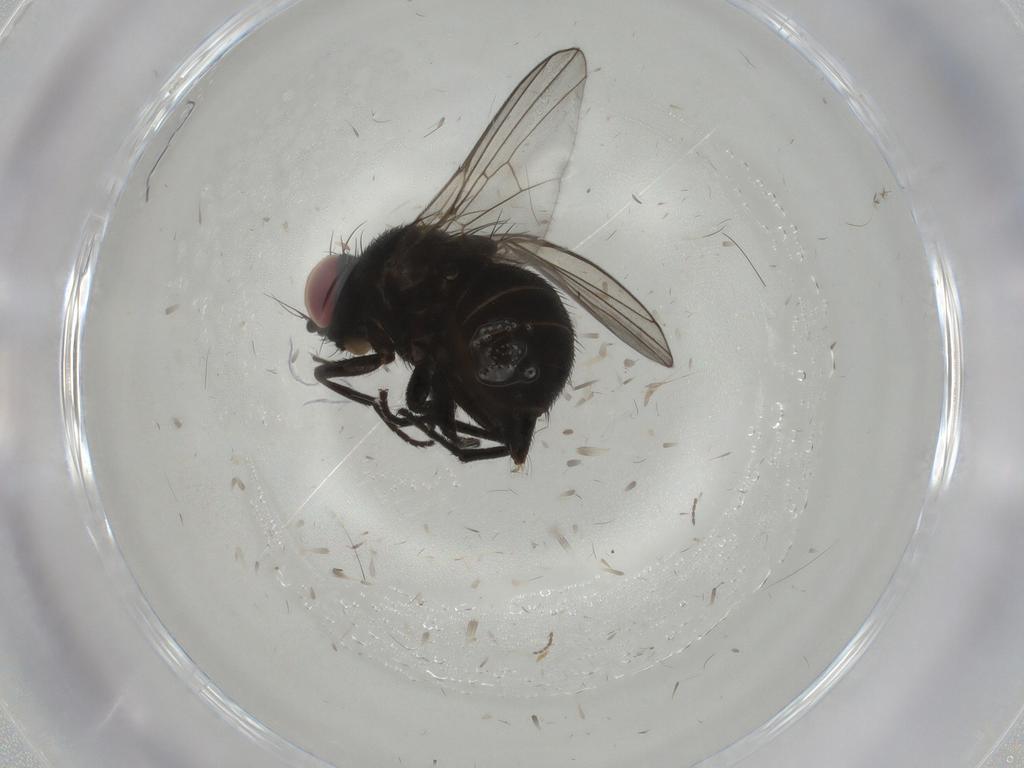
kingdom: Animalia
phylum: Arthropoda
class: Insecta
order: Diptera
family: Agromyzidae
